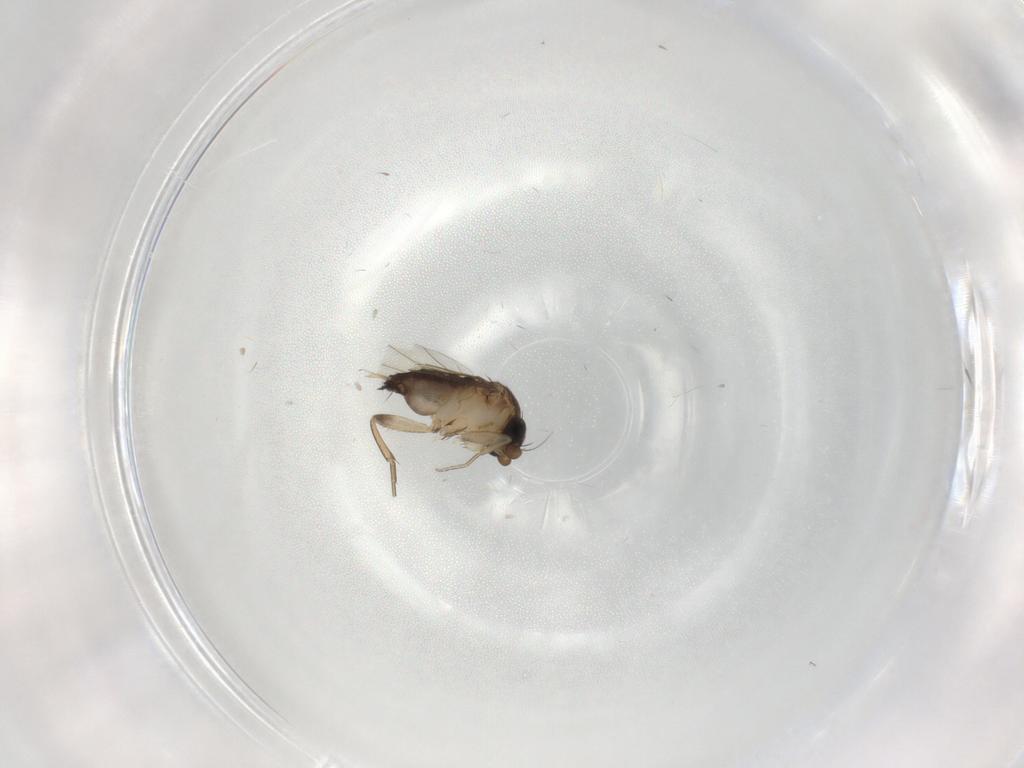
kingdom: Animalia
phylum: Arthropoda
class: Insecta
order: Diptera
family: Phoridae
